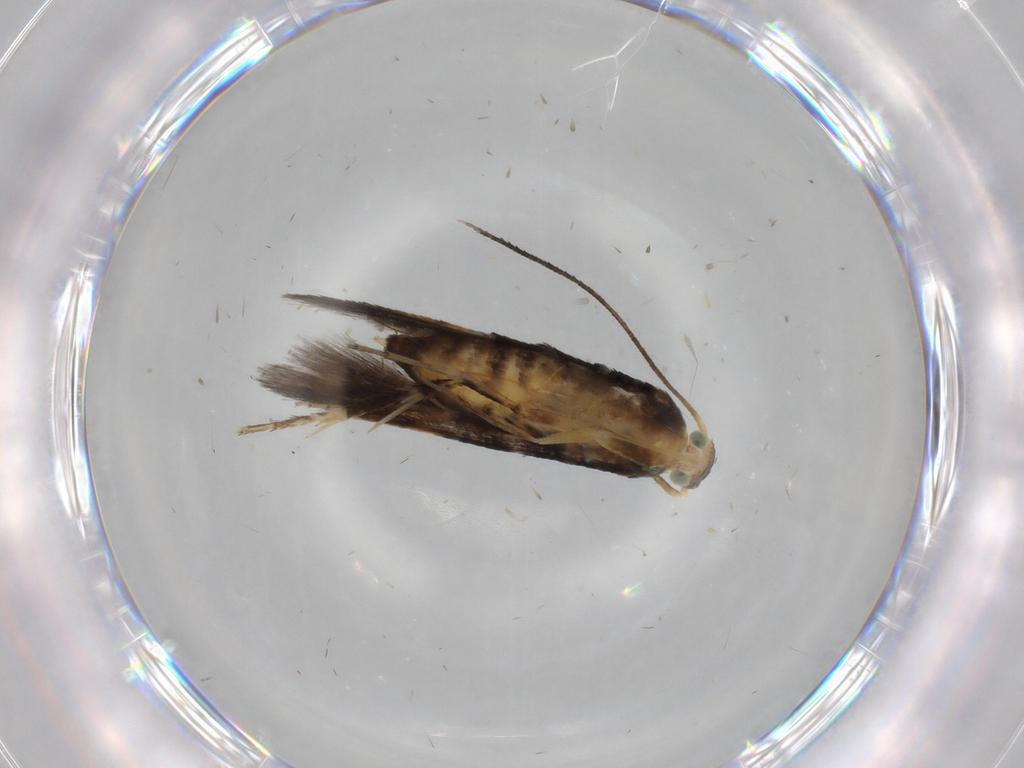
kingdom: Animalia
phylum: Arthropoda
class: Insecta
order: Lepidoptera
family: Heliodinidae
